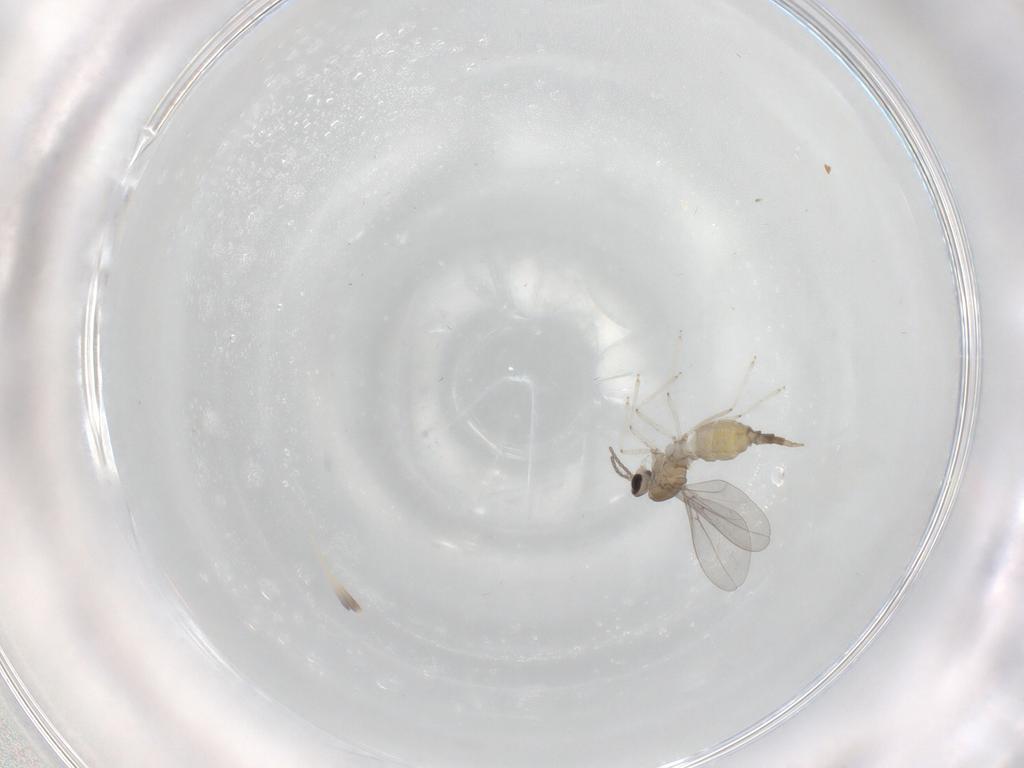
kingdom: Animalia
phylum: Arthropoda
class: Insecta
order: Diptera
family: Cecidomyiidae
